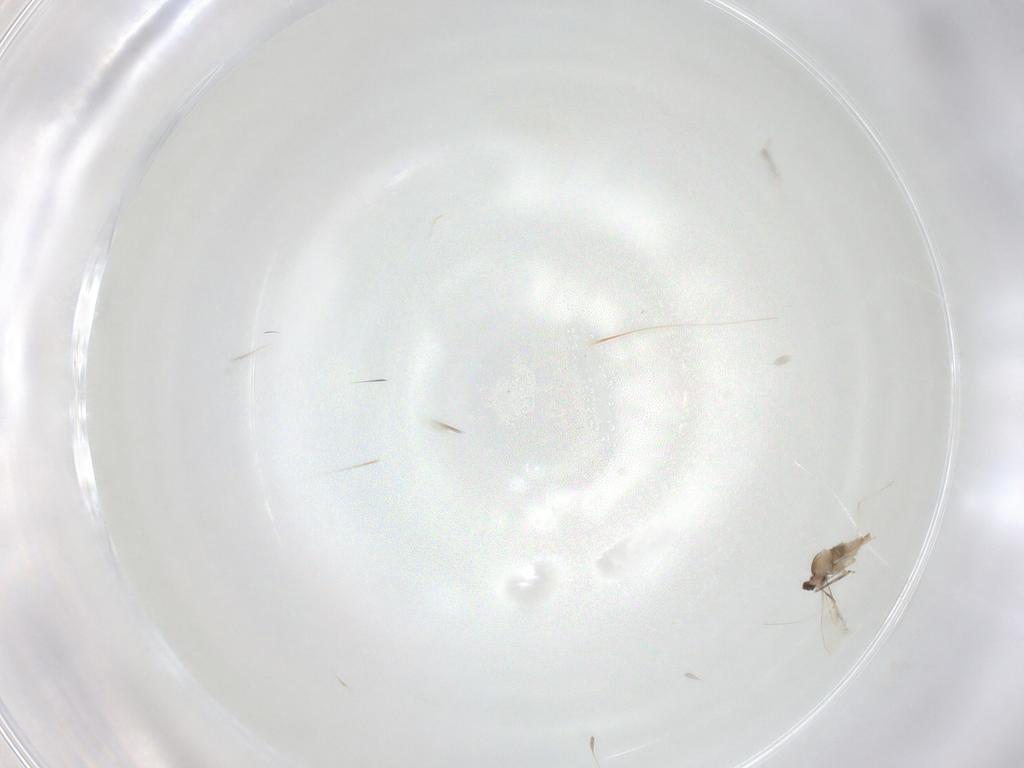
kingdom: Animalia
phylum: Arthropoda
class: Insecta
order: Diptera
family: Cecidomyiidae
